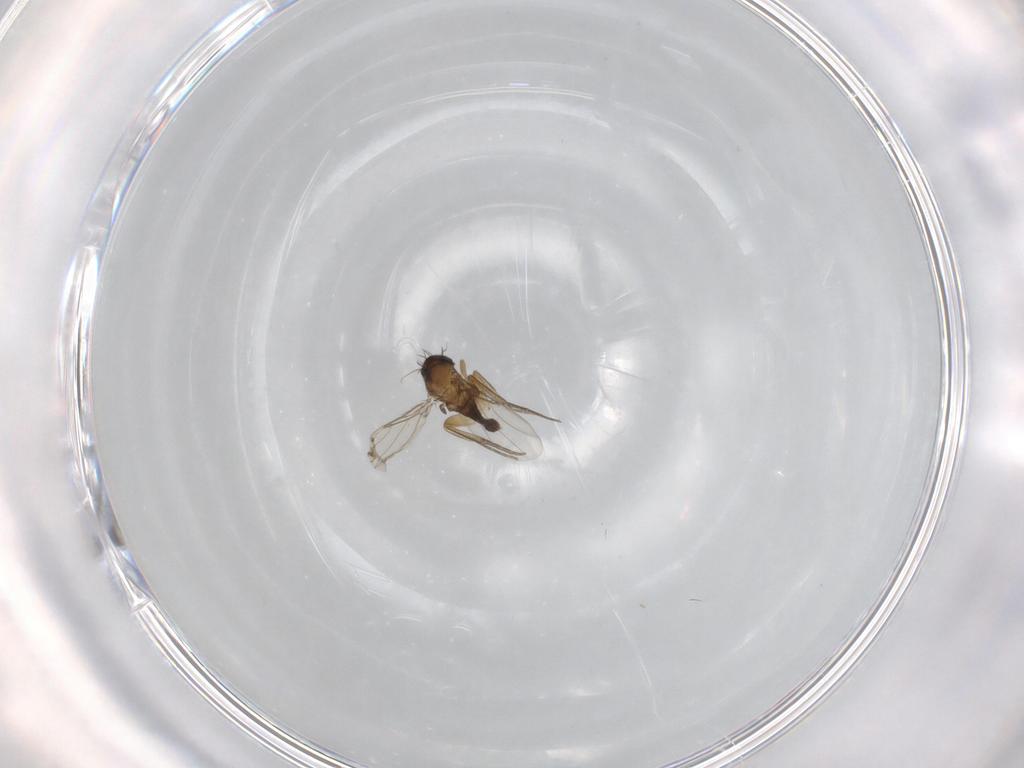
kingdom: Animalia
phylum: Arthropoda
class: Insecta
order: Diptera
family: Phoridae
